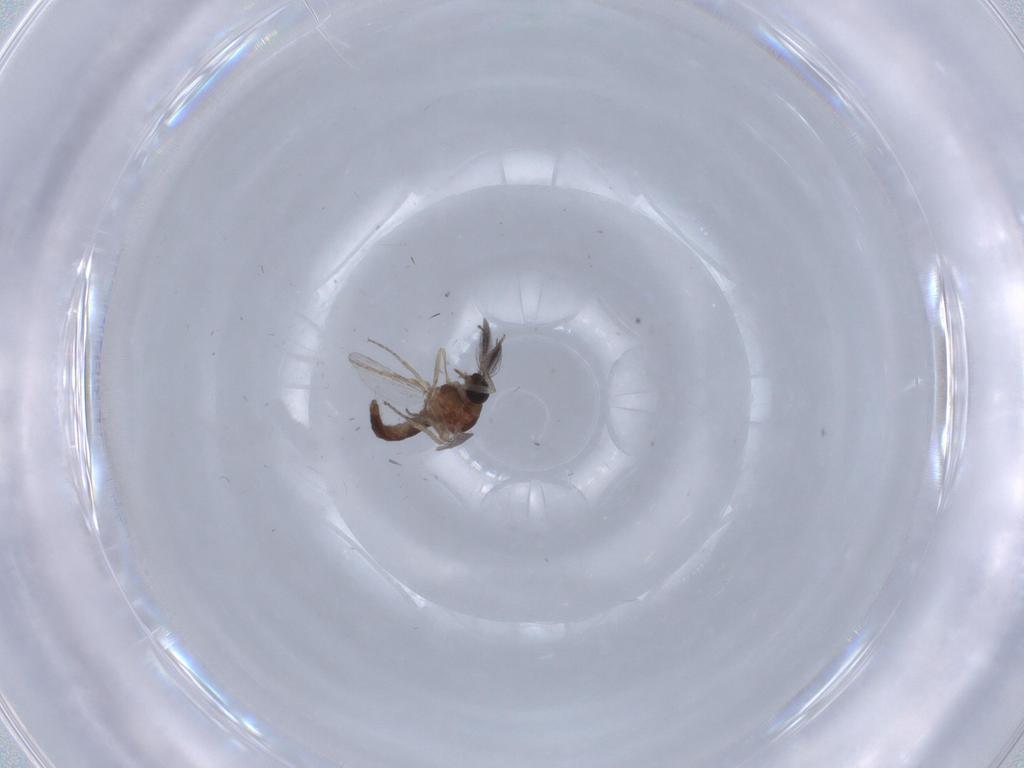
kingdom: Animalia
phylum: Arthropoda
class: Insecta
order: Diptera
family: Ceratopogonidae
